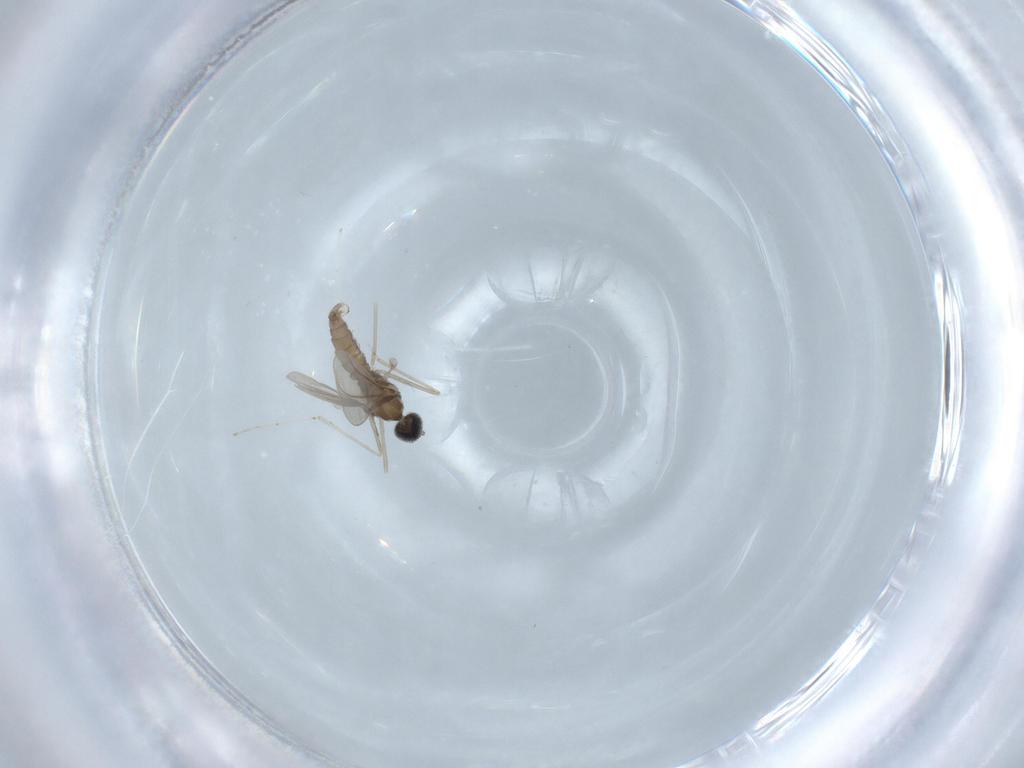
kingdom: Animalia
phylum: Arthropoda
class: Insecta
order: Diptera
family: Cecidomyiidae
